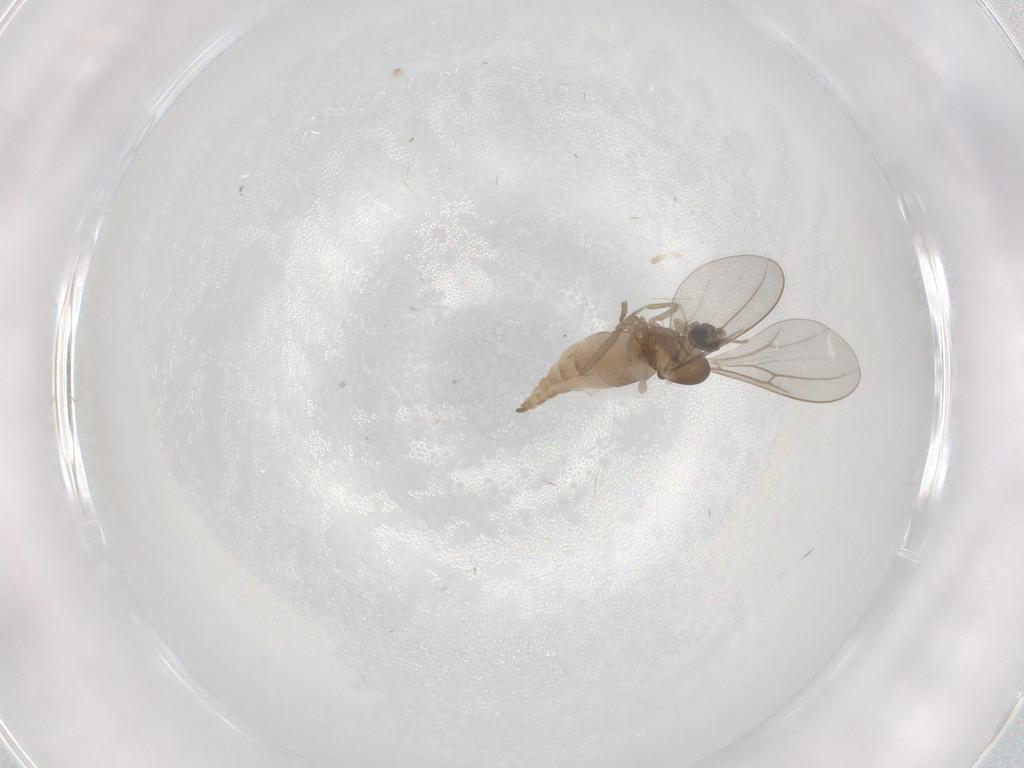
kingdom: Animalia
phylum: Arthropoda
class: Insecta
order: Diptera
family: Cecidomyiidae
